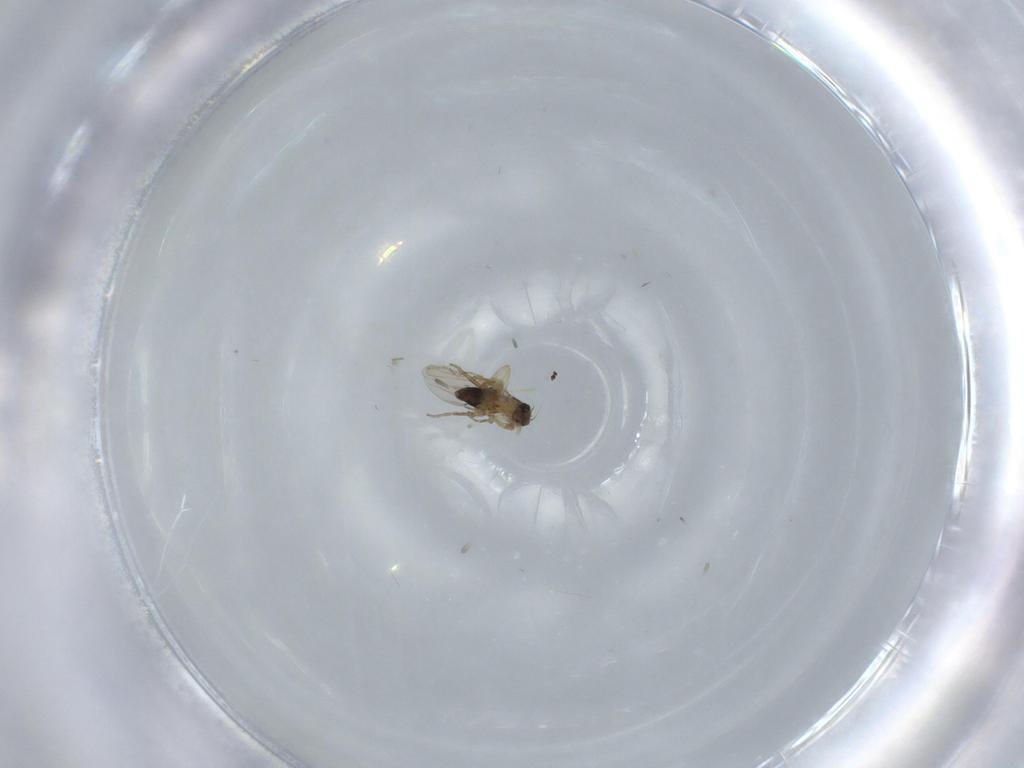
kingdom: Animalia
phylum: Arthropoda
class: Insecta
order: Diptera
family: Phoridae
